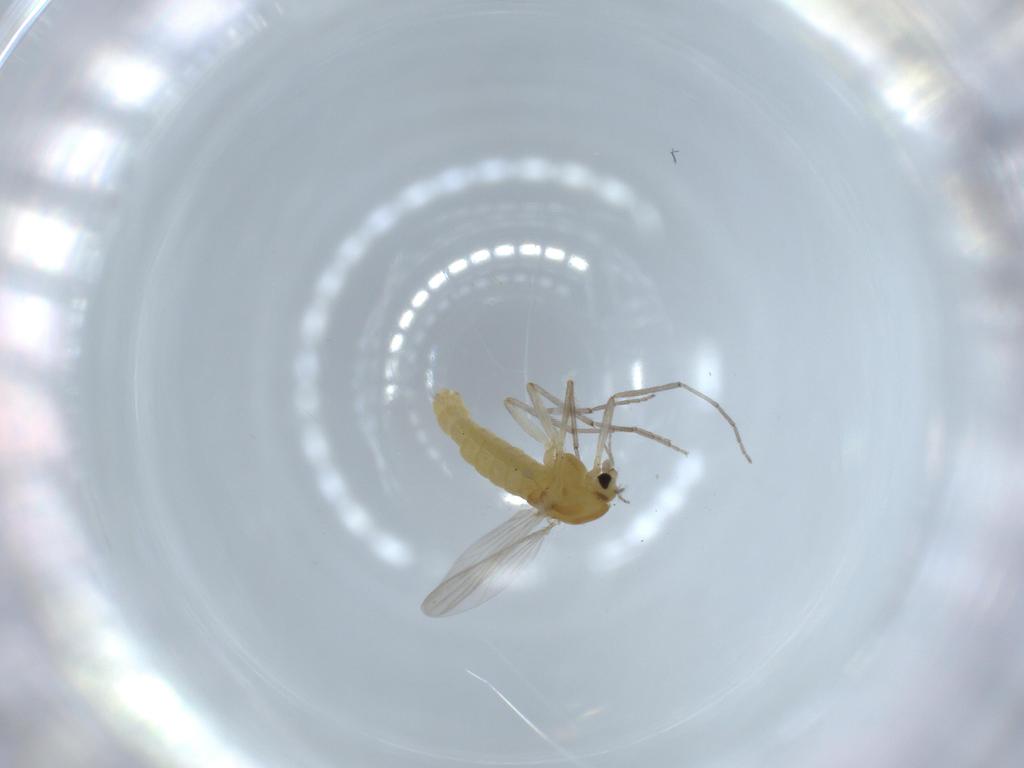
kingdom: Animalia
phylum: Arthropoda
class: Insecta
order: Diptera
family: Chironomidae
